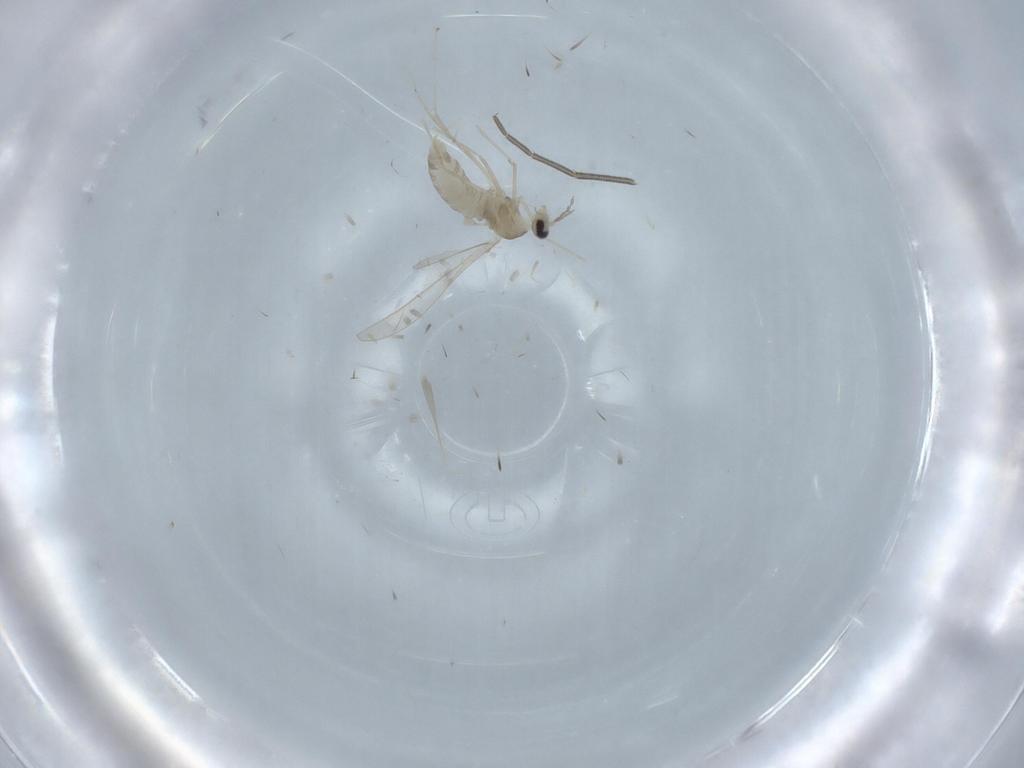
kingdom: Animalia
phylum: Arthropoda
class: Insecta
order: Diptera
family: Cecidomyiidae
